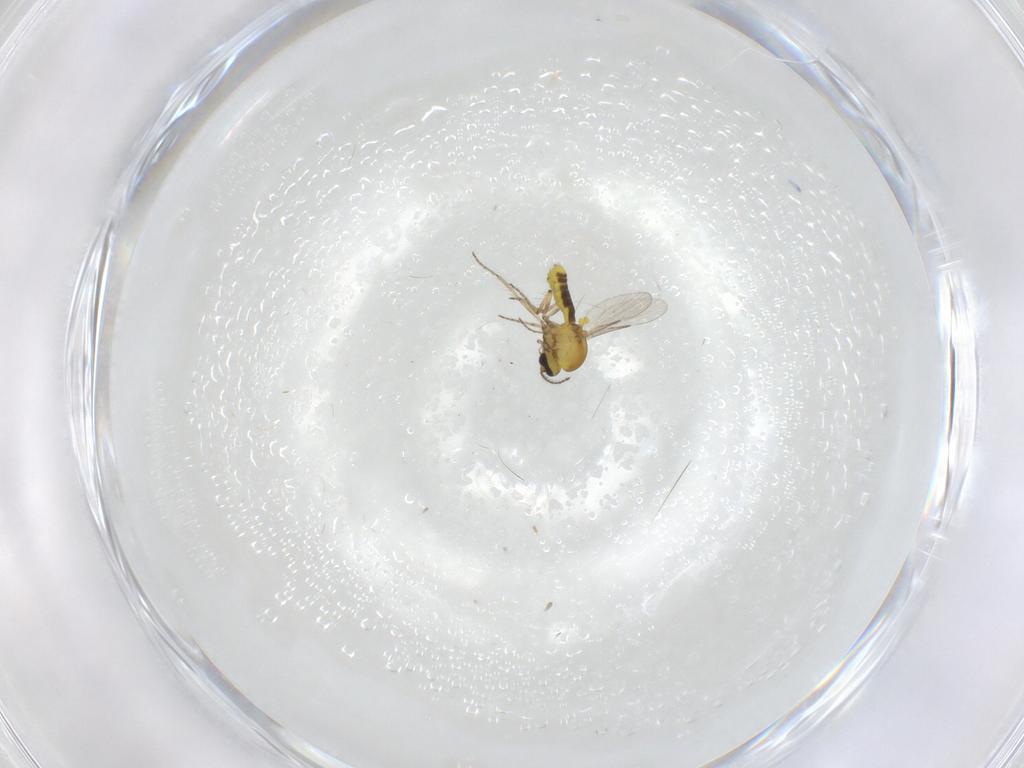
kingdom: Animalia
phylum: Arthropoda
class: Insecta
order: Diptera
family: Ceratopogonidae
